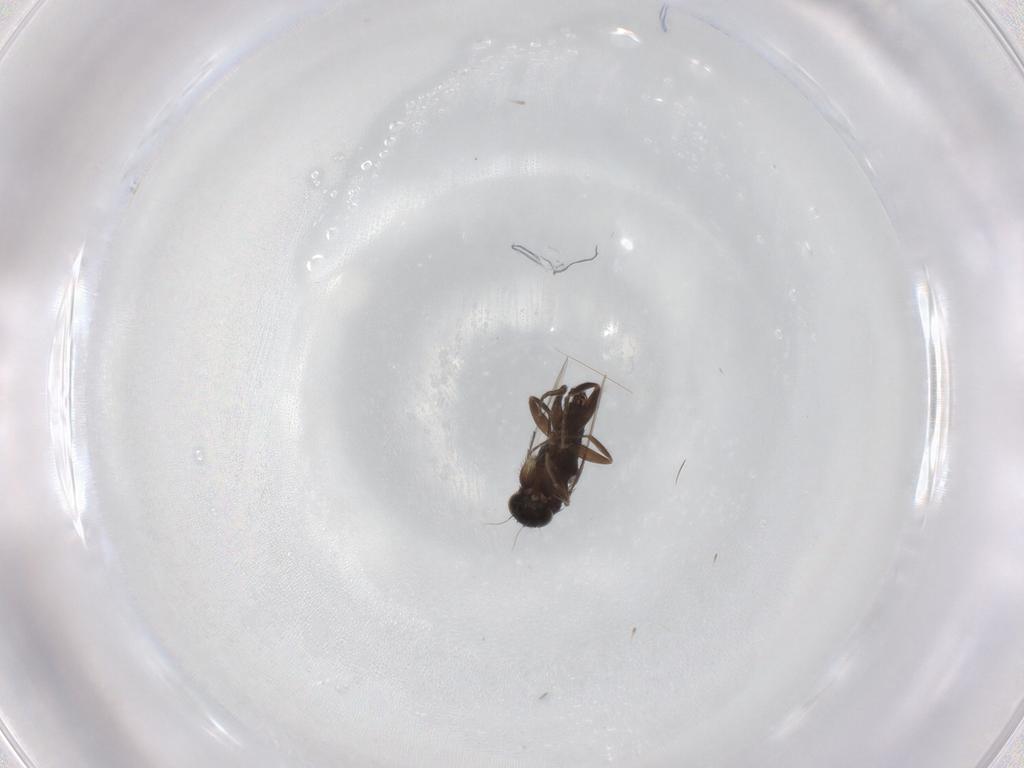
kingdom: Animalia
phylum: Arthropoda
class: Insecta
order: Diptera
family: Phoridae
